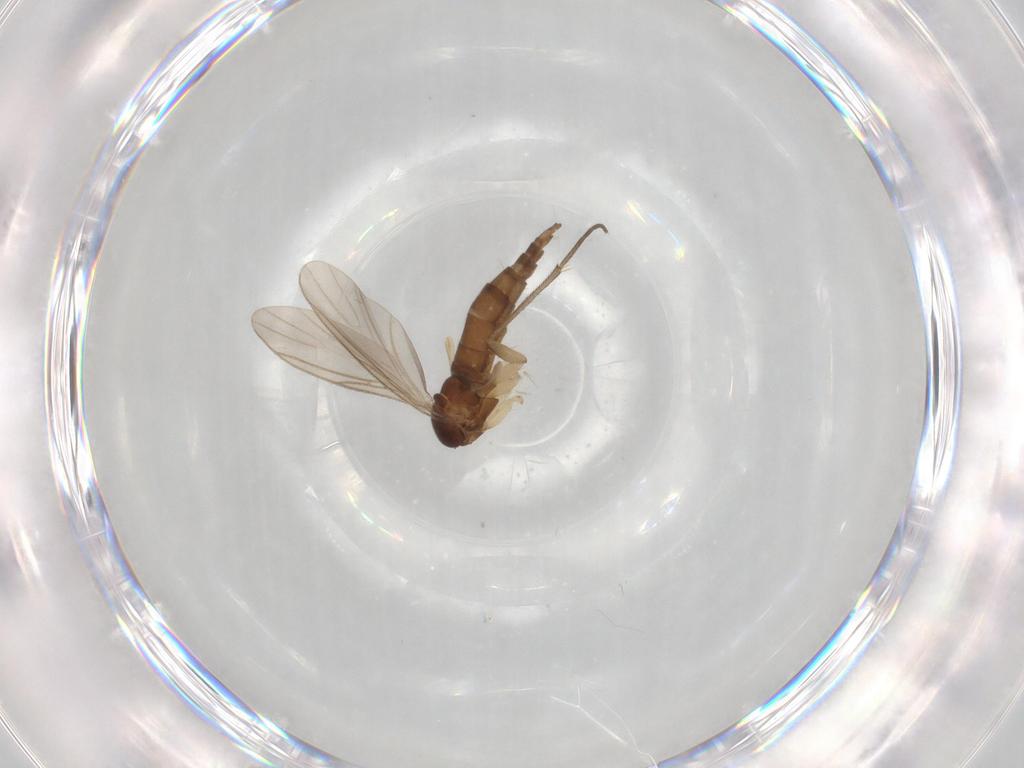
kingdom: Animalia
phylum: Arthropoda
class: Insecta
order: Diptera
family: Sciaridae
